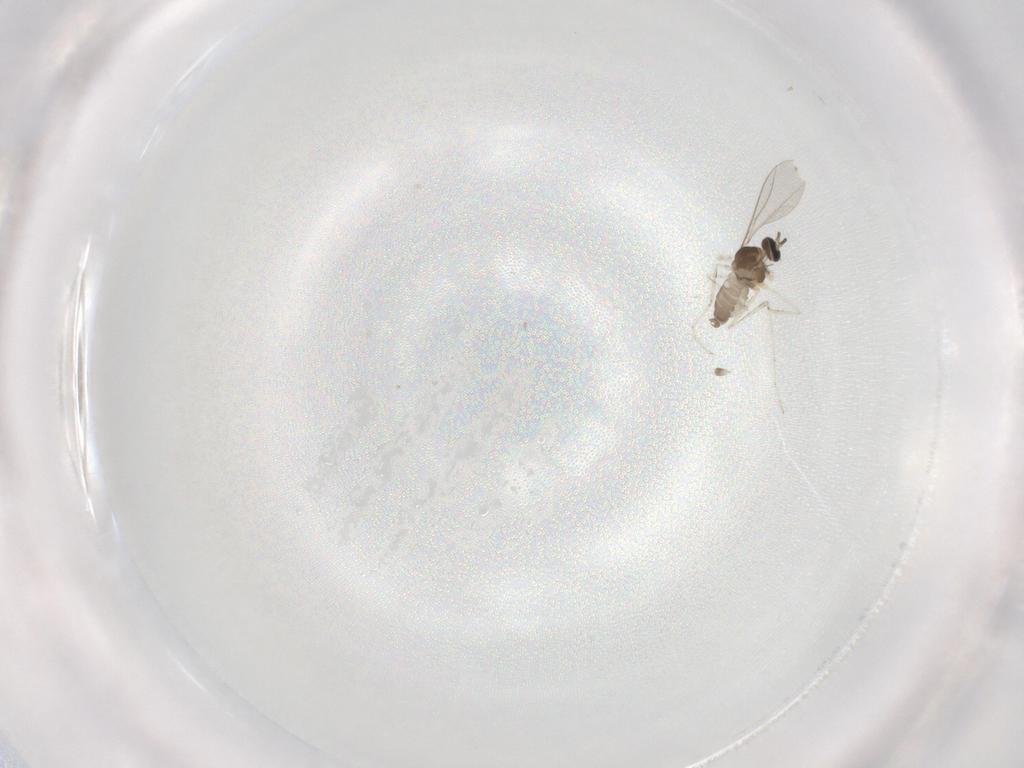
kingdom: Animalia
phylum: Arthropoda
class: Insecta
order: Diptera
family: Cecidomyiidae
